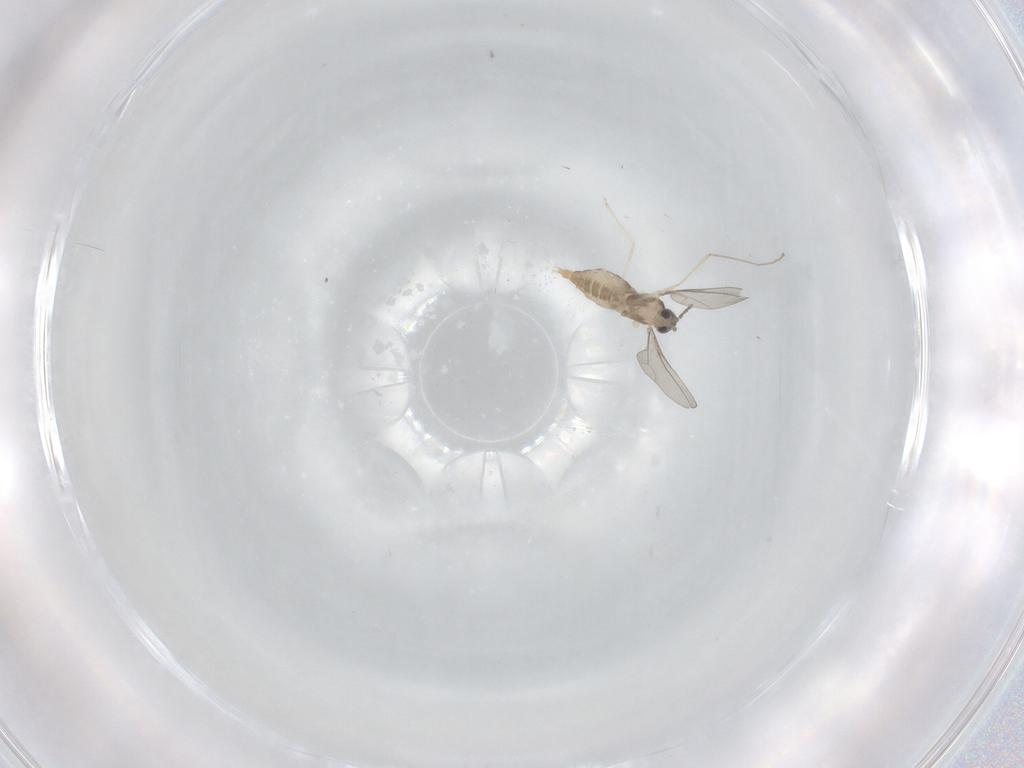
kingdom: Animalia
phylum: Arthropoda
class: Insecta
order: Diptera
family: Cecidomyiidae
